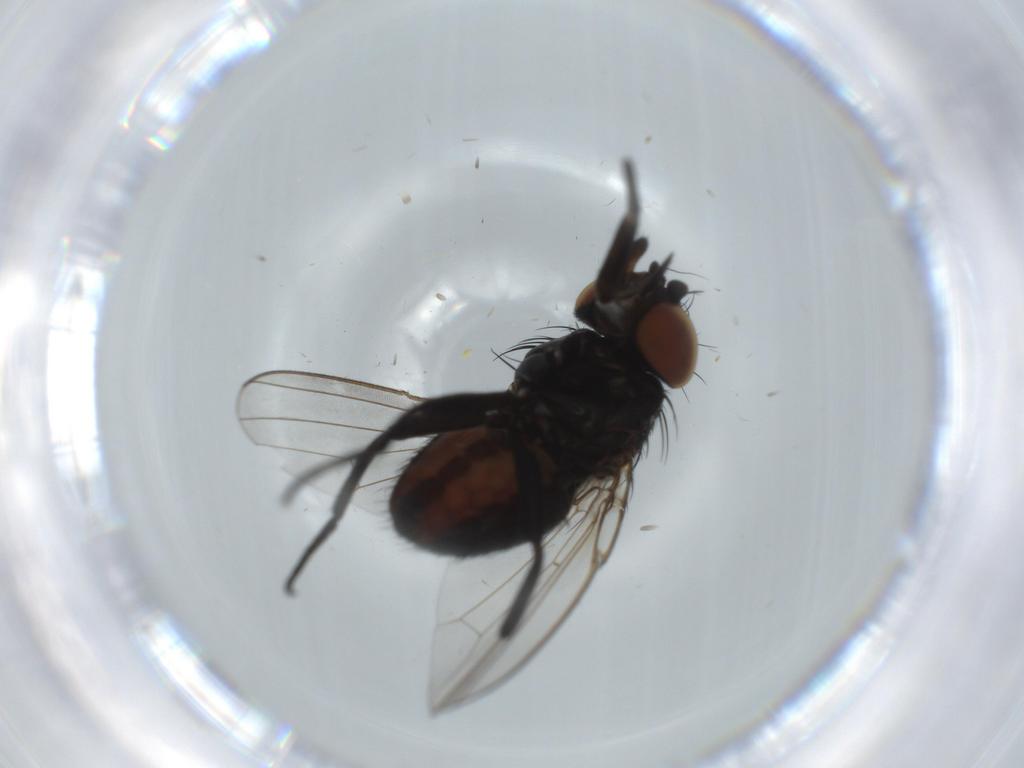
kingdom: Animalia
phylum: Arthropoda
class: Insecta
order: Diptera
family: Milichiidae
